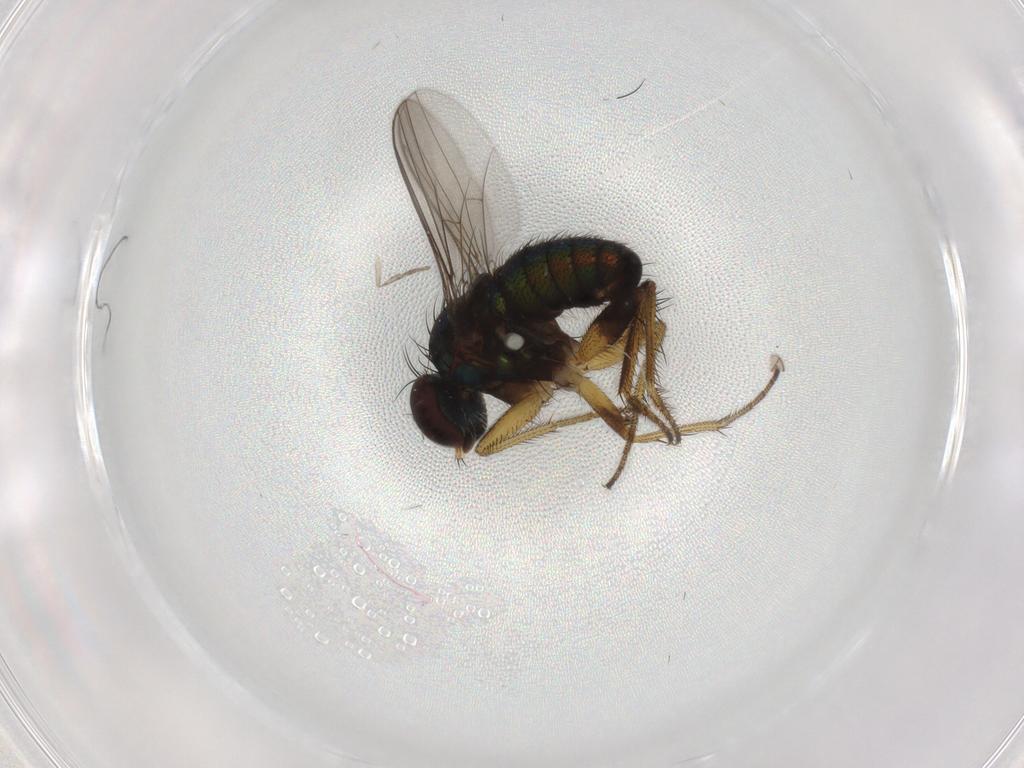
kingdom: Animalia
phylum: Arthropoda
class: Insecta
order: Diptera
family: Dolichopodidae
